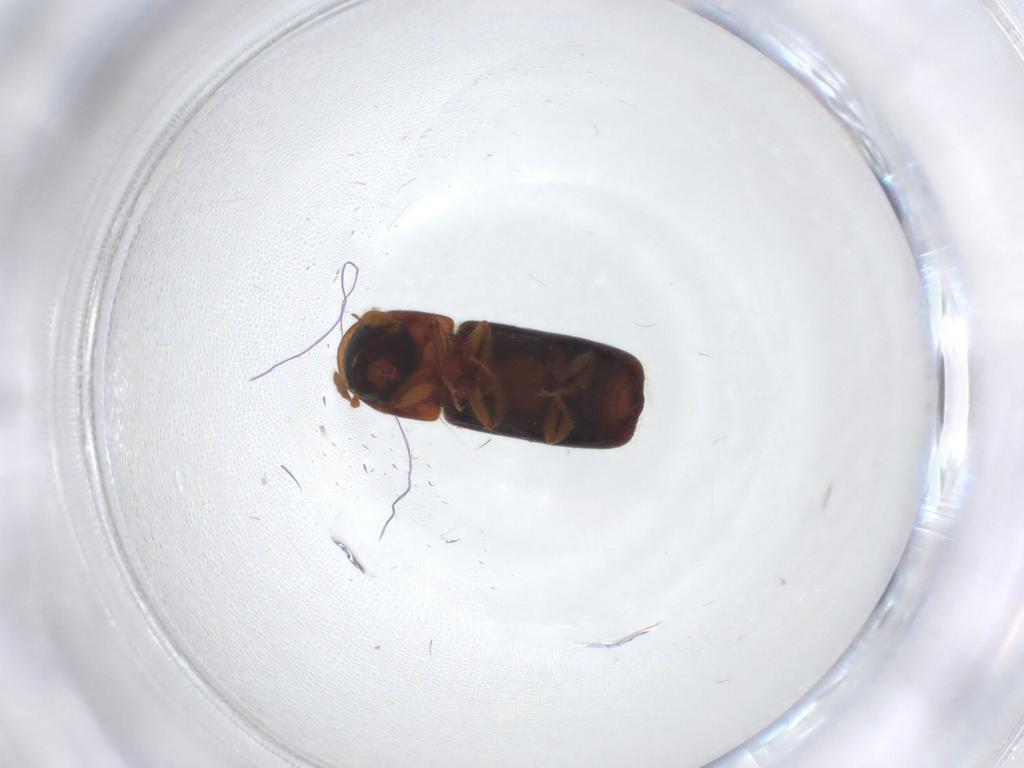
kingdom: Animalia
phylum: Arthropoda
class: Insecta
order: Coleoptera
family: Curculionidae
